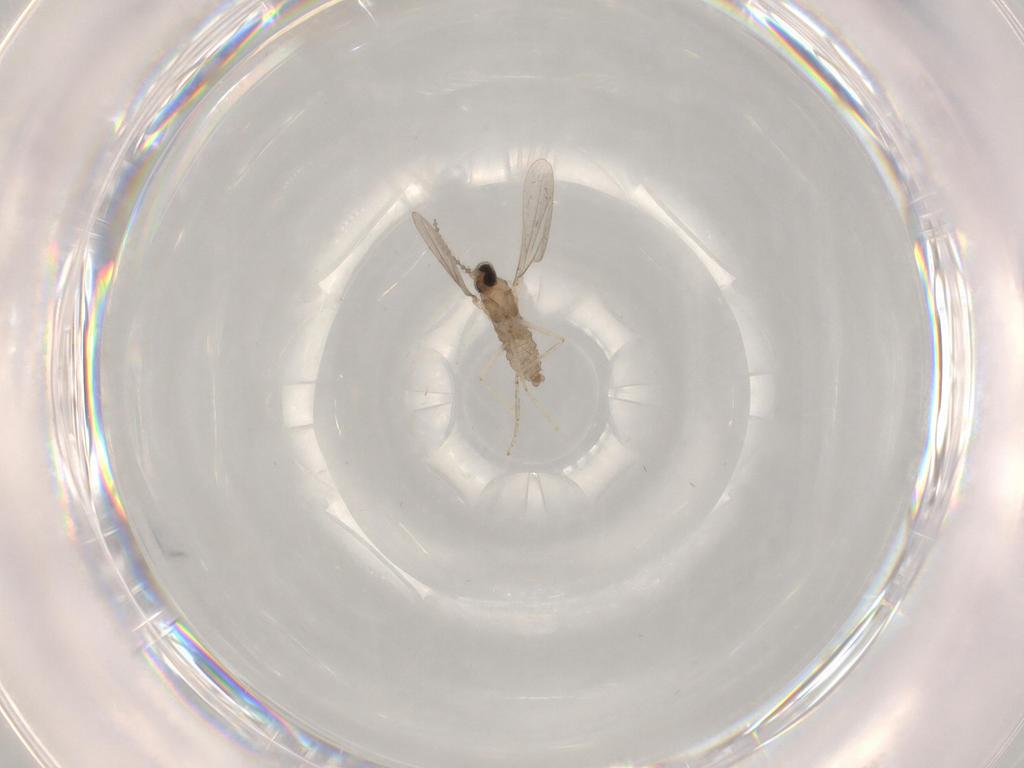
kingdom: Animalia
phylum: Arthropoda
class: Insecta
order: Diptera
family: Cecidomyiidae
